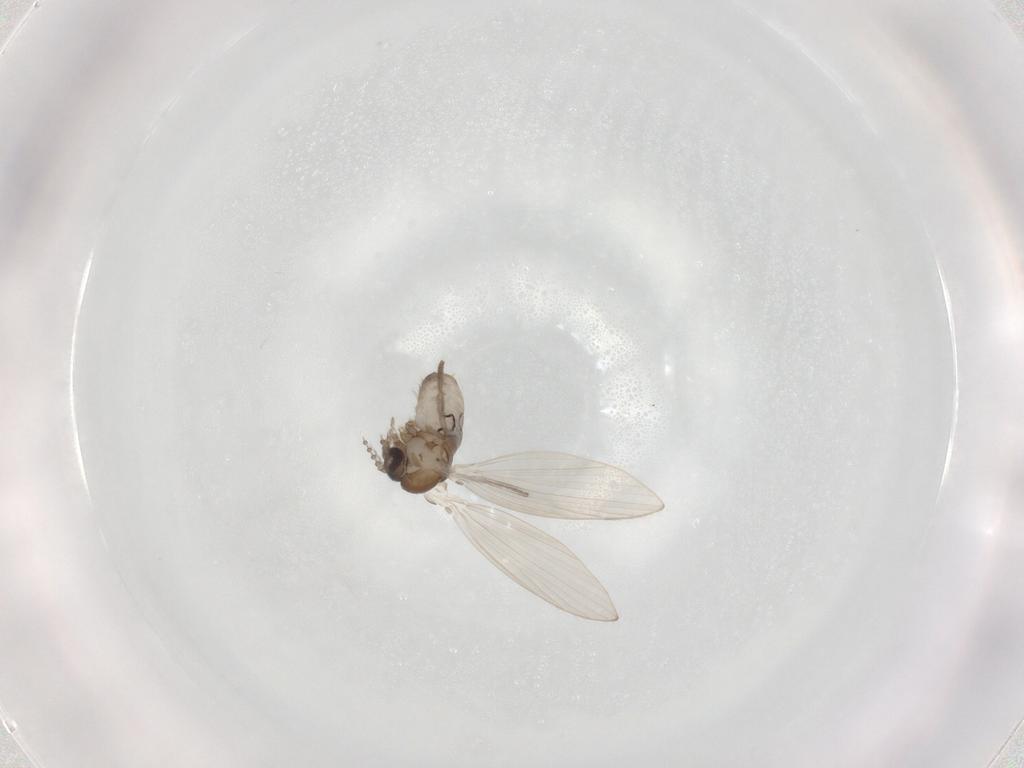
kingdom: Animalia
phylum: Arthropoda
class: Insecta
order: Diptera
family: Psychodidae
